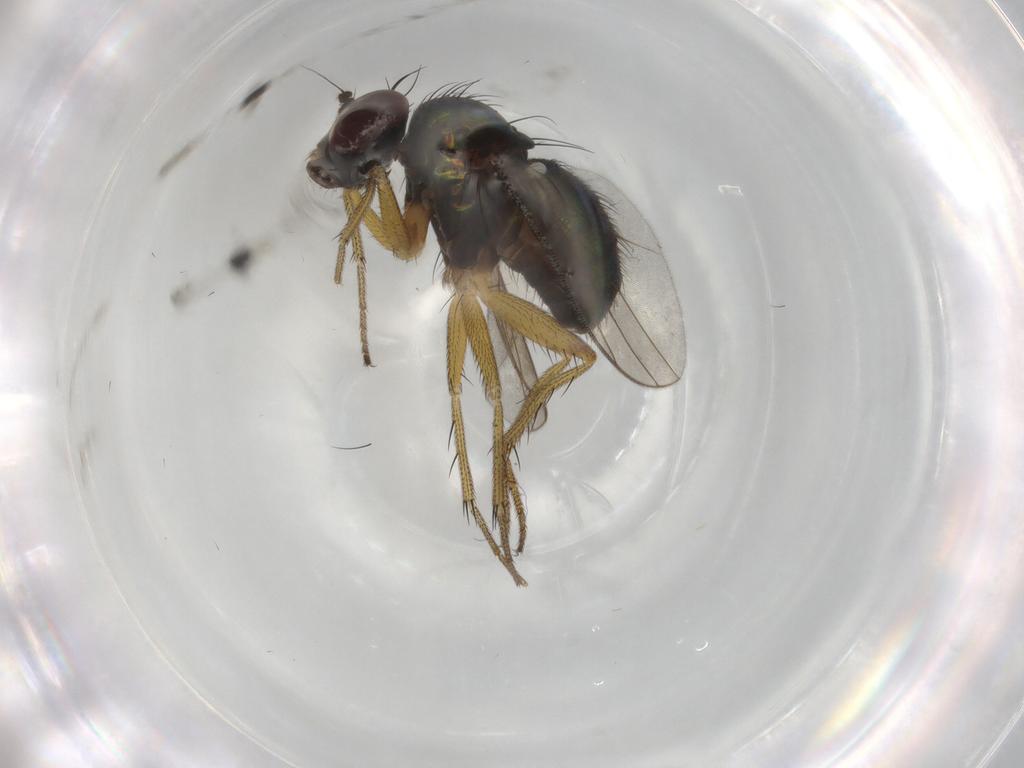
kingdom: Animalia
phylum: Arthropoda
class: Insecta
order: Diptera
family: Dolichopodidae
